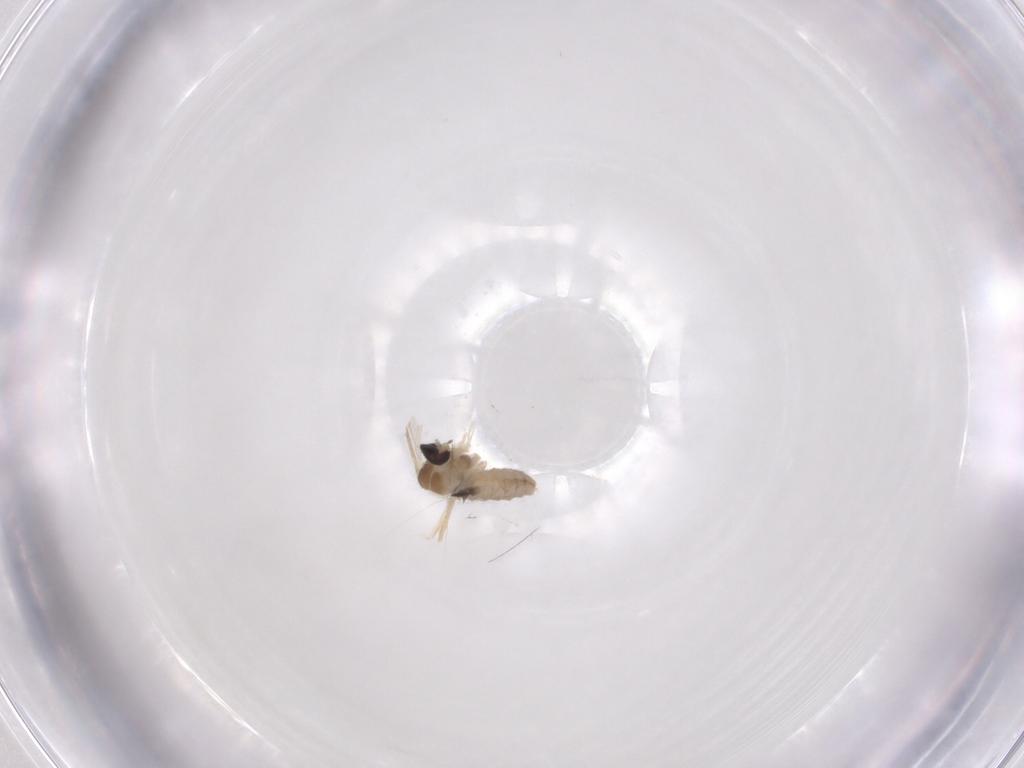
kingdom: Animalia
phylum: Arthropoda
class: Insecta
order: Diptera
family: Cecidomyiidae
